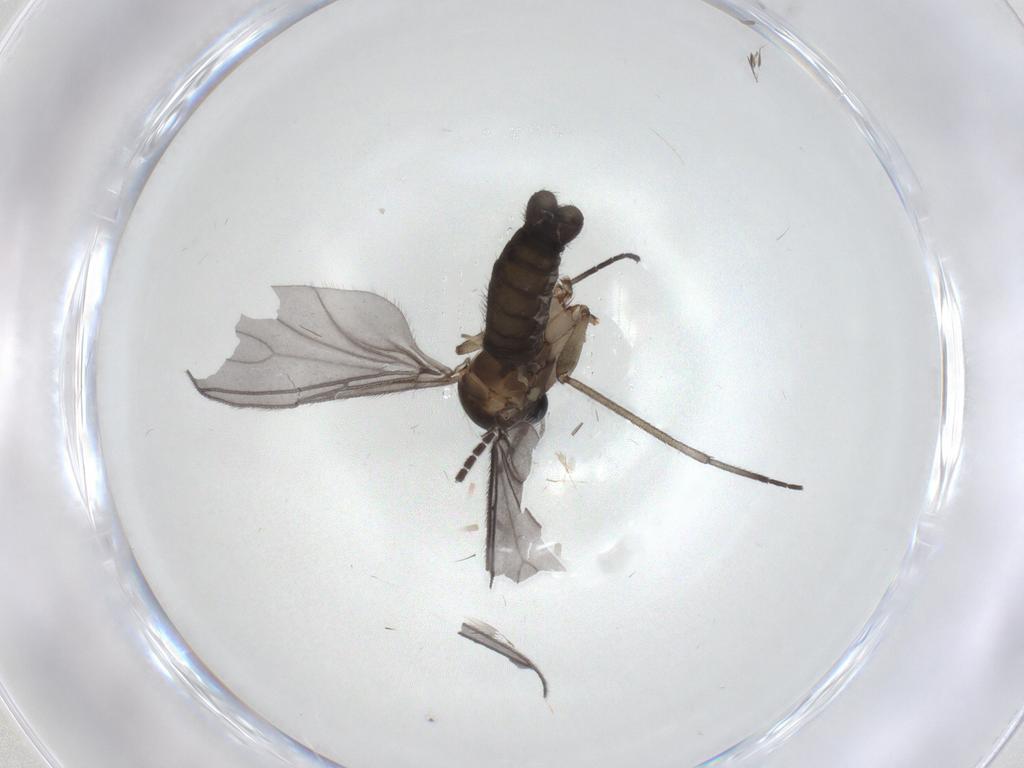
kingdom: Animalia
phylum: Arthropoda
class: Insecta
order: Diptera
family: Sciaridae
